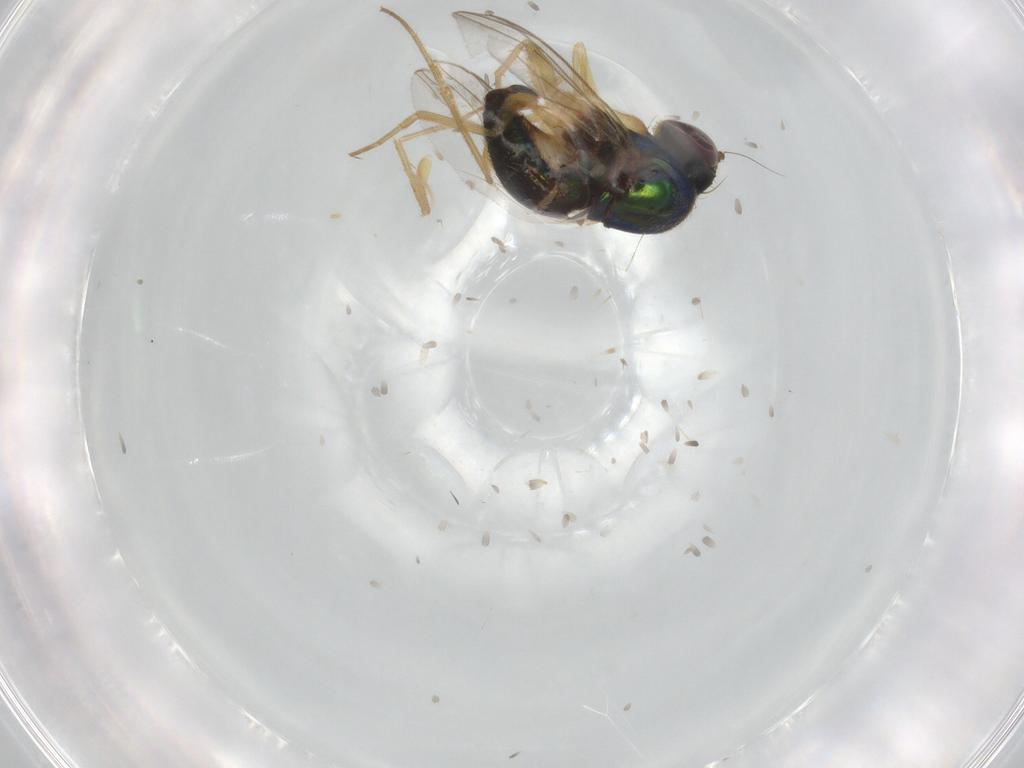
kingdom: Animalia
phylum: Arthropoda
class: Insecta
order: Diptera
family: Dolichopodidae
